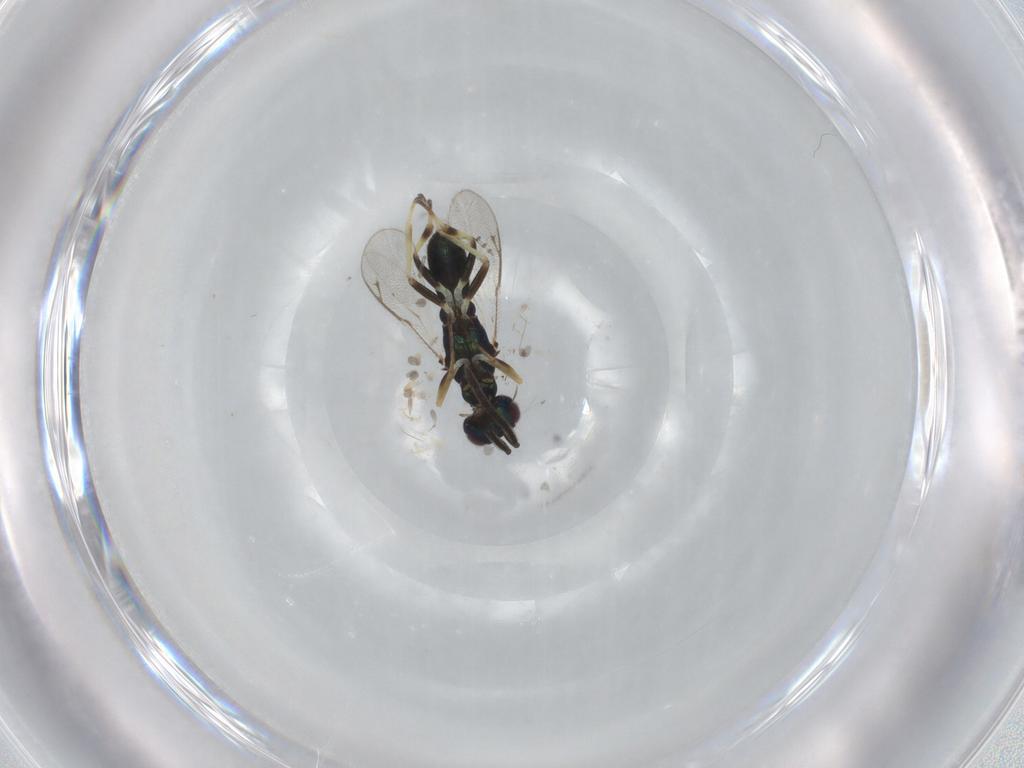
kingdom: Animalia
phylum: Arthropoda
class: Insecta
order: Hymenoptera
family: Eupelmidae
